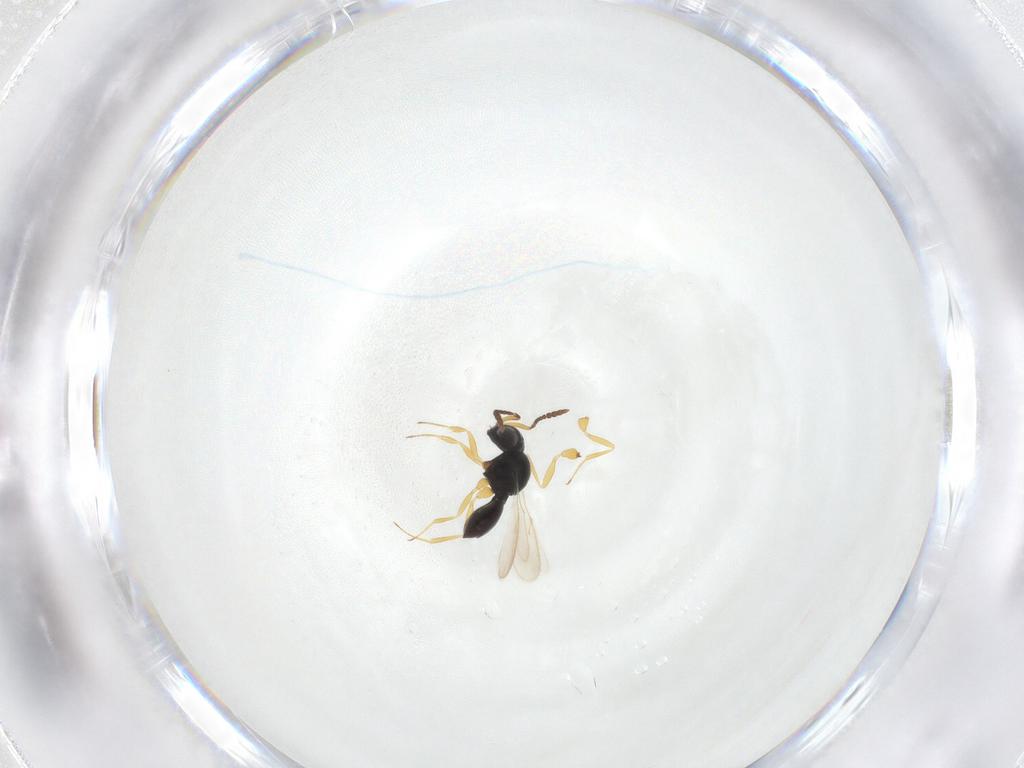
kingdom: Animalia
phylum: Arthropoda
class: Insecta
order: Hymenoptera
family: Scelionidae
